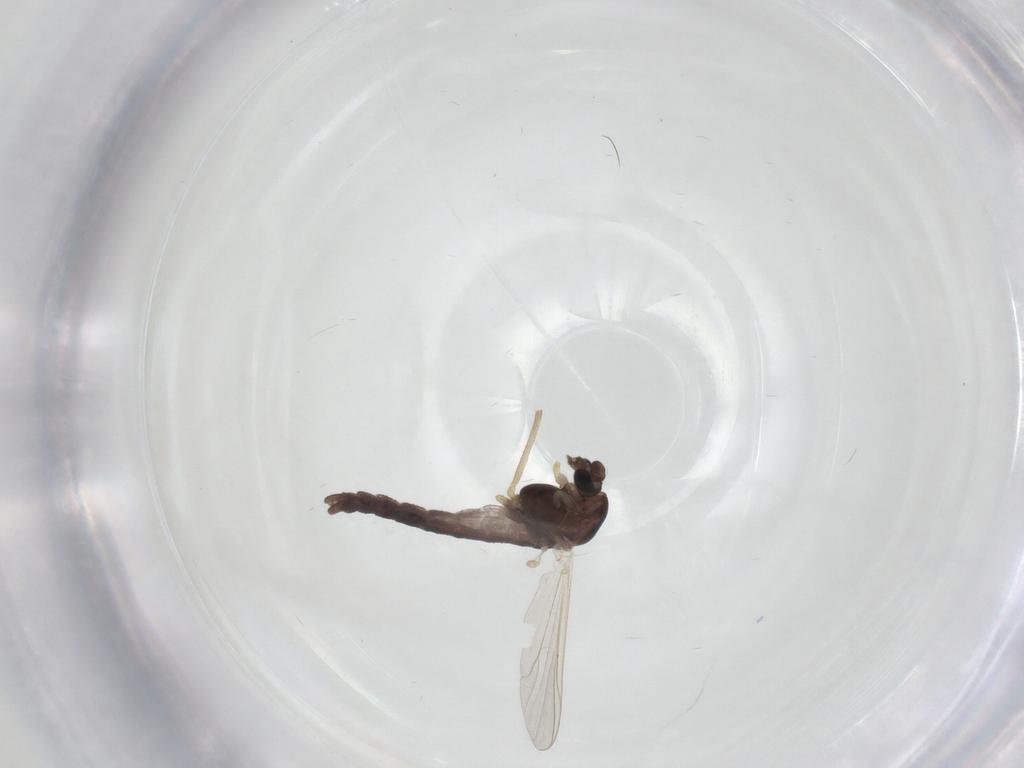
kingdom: Animalia
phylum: Arthropoda
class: Insecta
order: Diptera
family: Chironomidae
